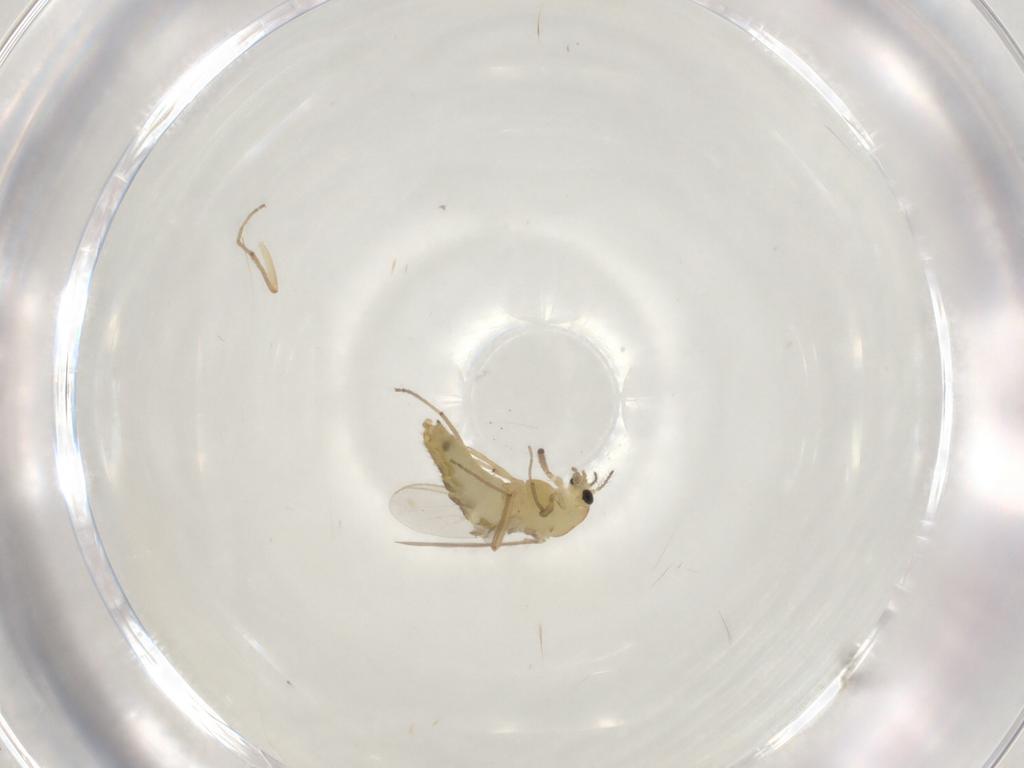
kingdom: Animalia
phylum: Arthropoda
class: Insecta
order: Diptera
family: Chironomidae
